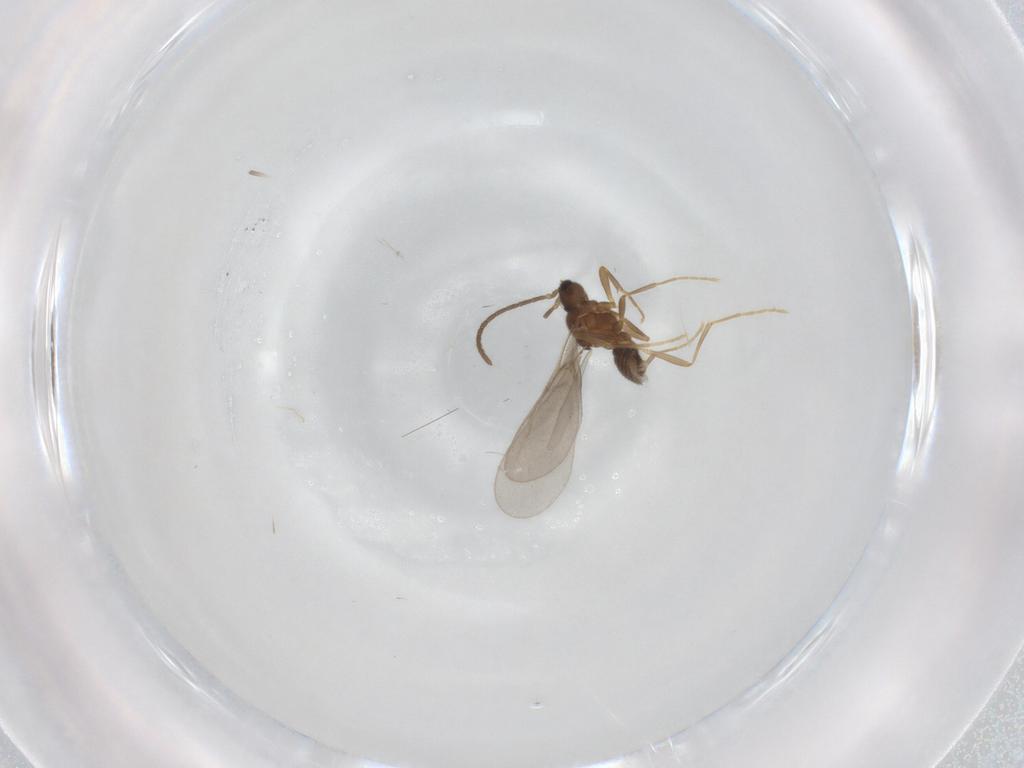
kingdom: Animalia
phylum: Arthropoda
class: Insecta
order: Hymenoptera
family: Formicidae
